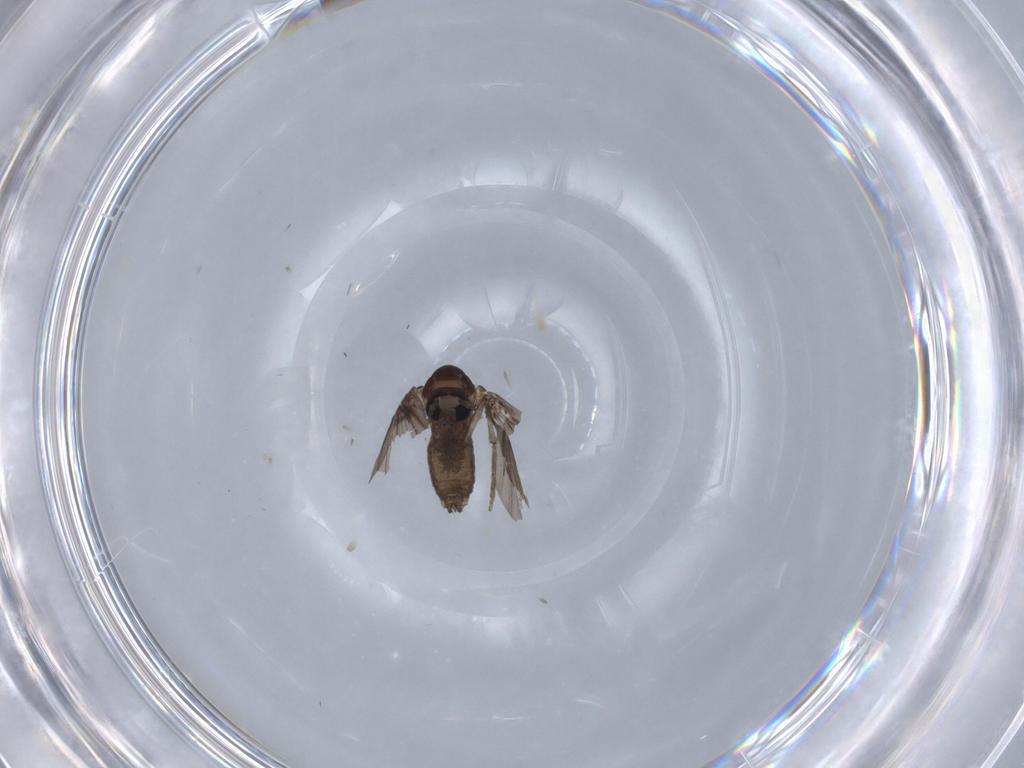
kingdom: Animalia
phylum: Arthropoda
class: Insecta
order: Diptera
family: Psychodidae
